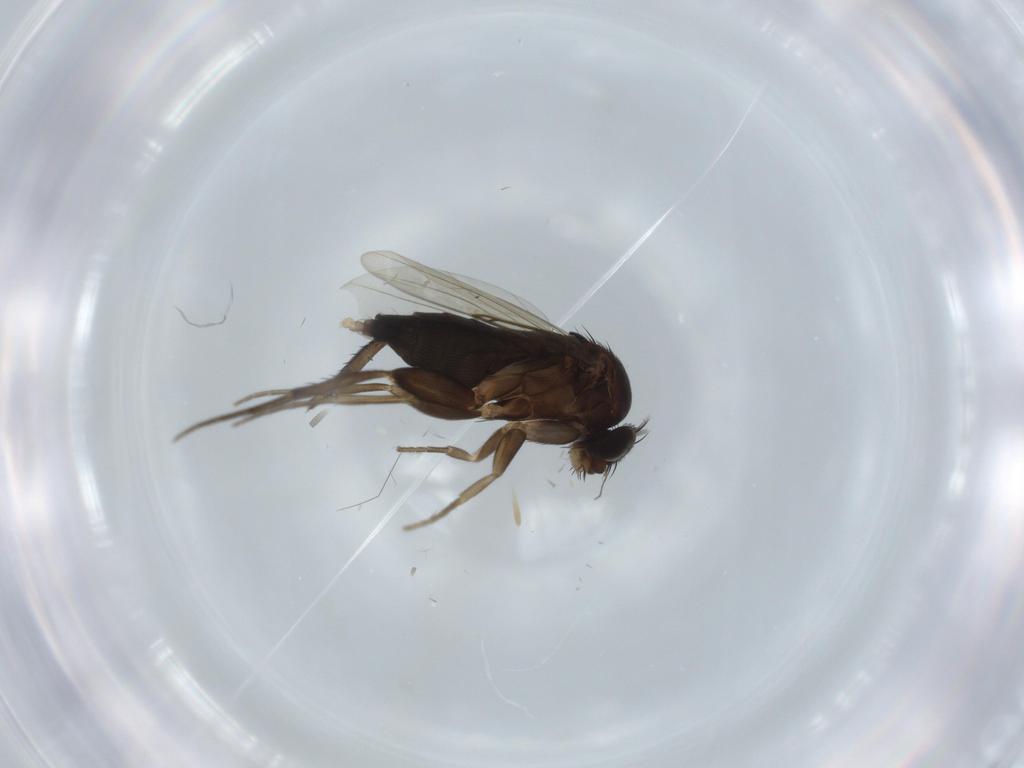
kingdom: Animalia
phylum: Arthropoda
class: Insecta
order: Diptera
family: Phoridae
